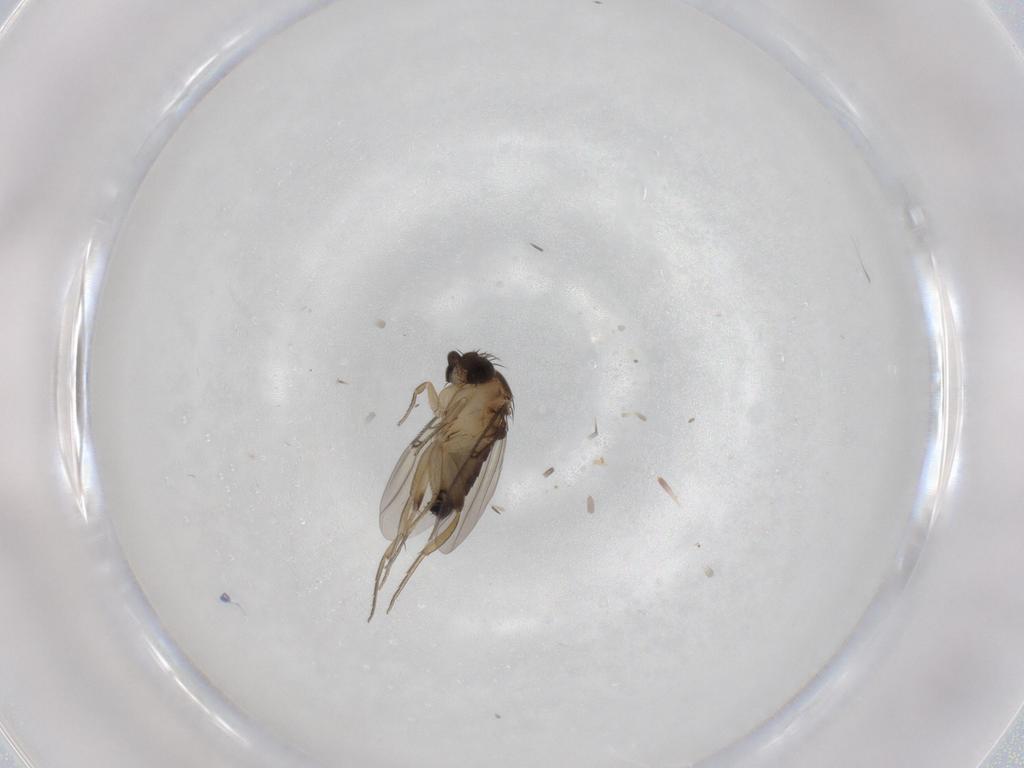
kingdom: Animalia
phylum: Arthropoda
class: Insecta
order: Diptera
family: Phoridae
